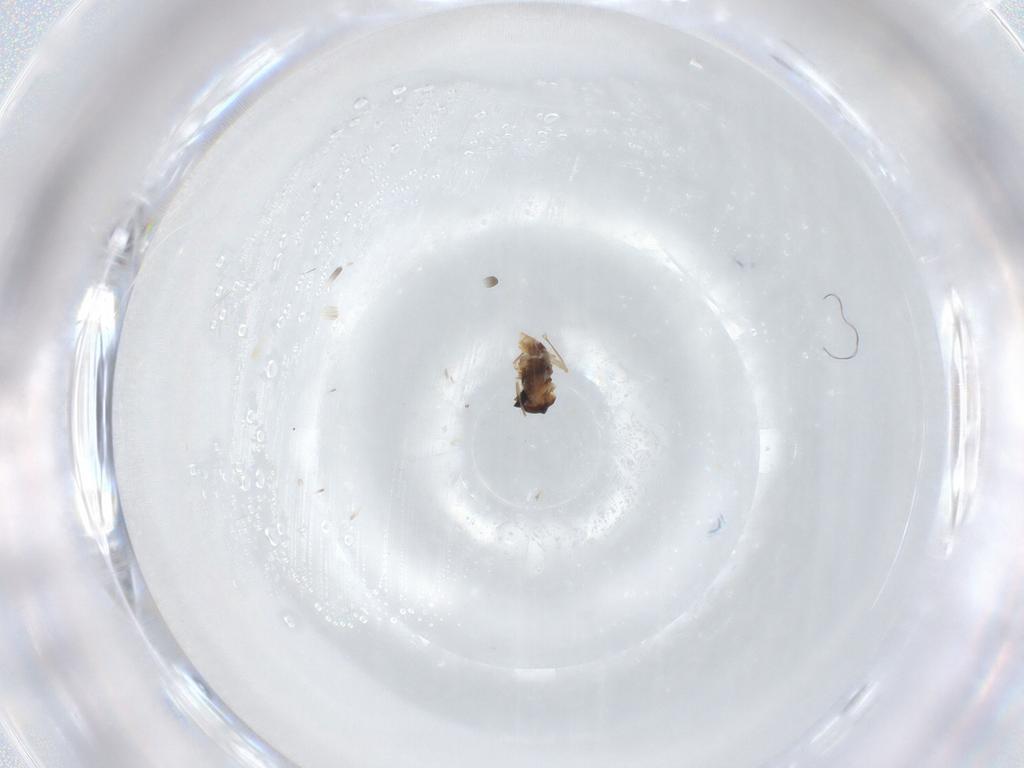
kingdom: Animalia
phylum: Arthropoda
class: Insecta
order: Diptera
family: Cecidomyiidae
